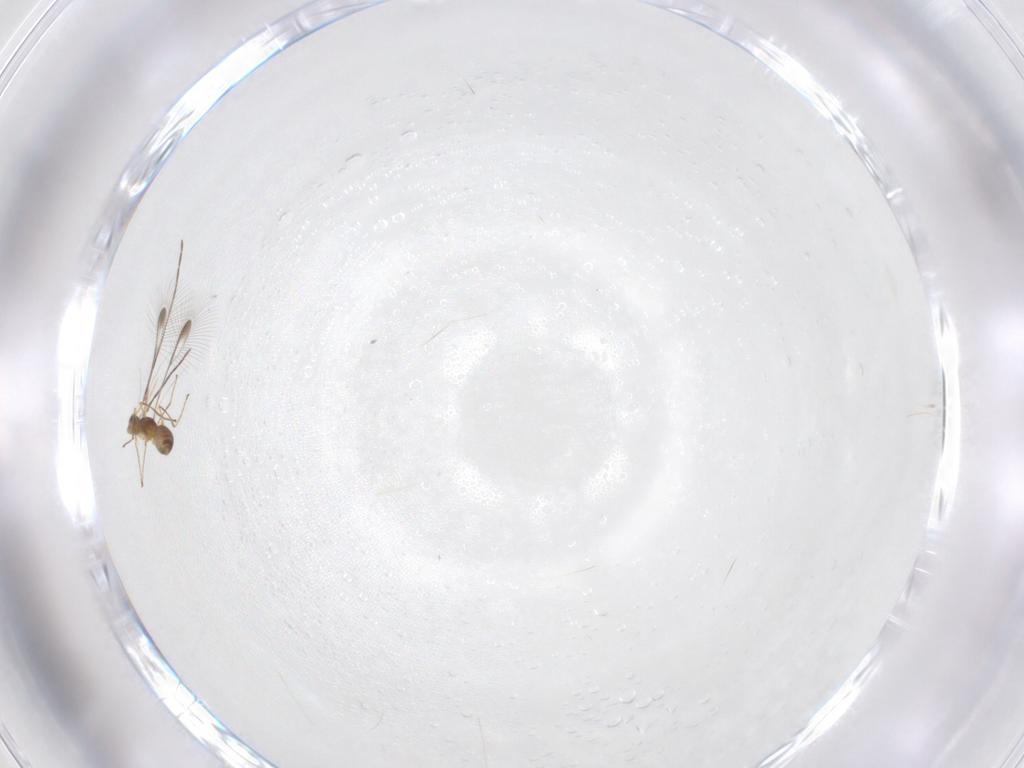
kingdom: Animalia
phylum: Arthropoda
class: Insecta
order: Hymenoptera
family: Mymaridae
